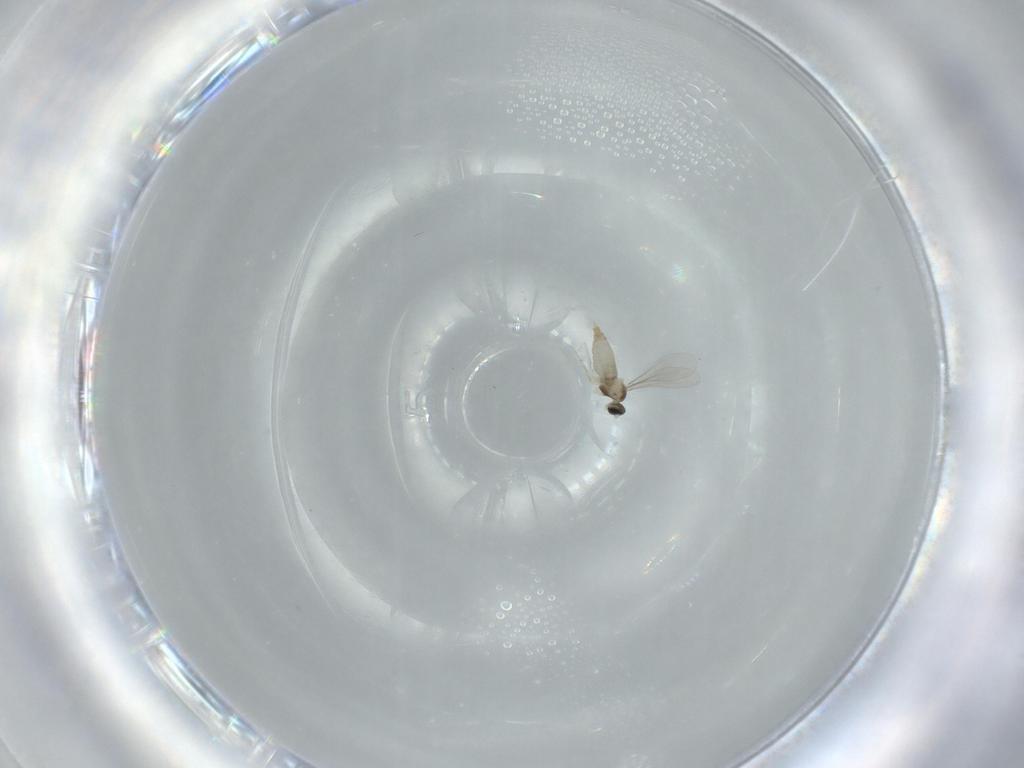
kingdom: Animalia
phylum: Arthropoda
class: Insecta
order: Diptera
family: Cecidomyiidae
